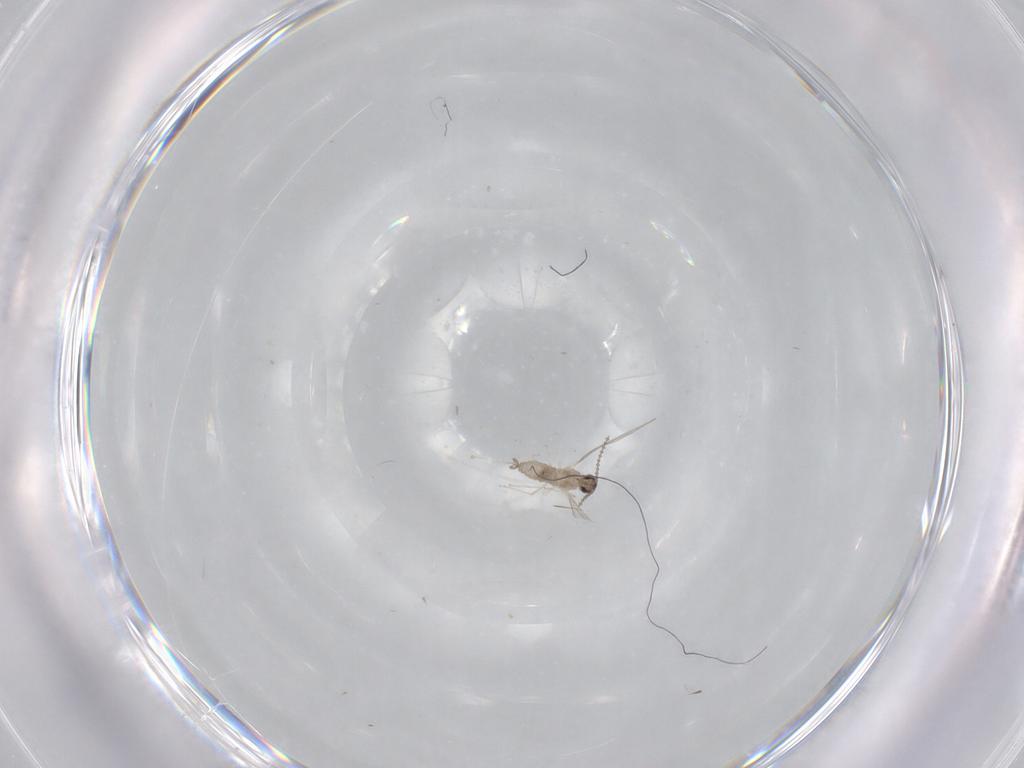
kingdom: Animalia
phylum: Arthropoda
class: Insecta
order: Diptera
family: Cecidomyiidae
